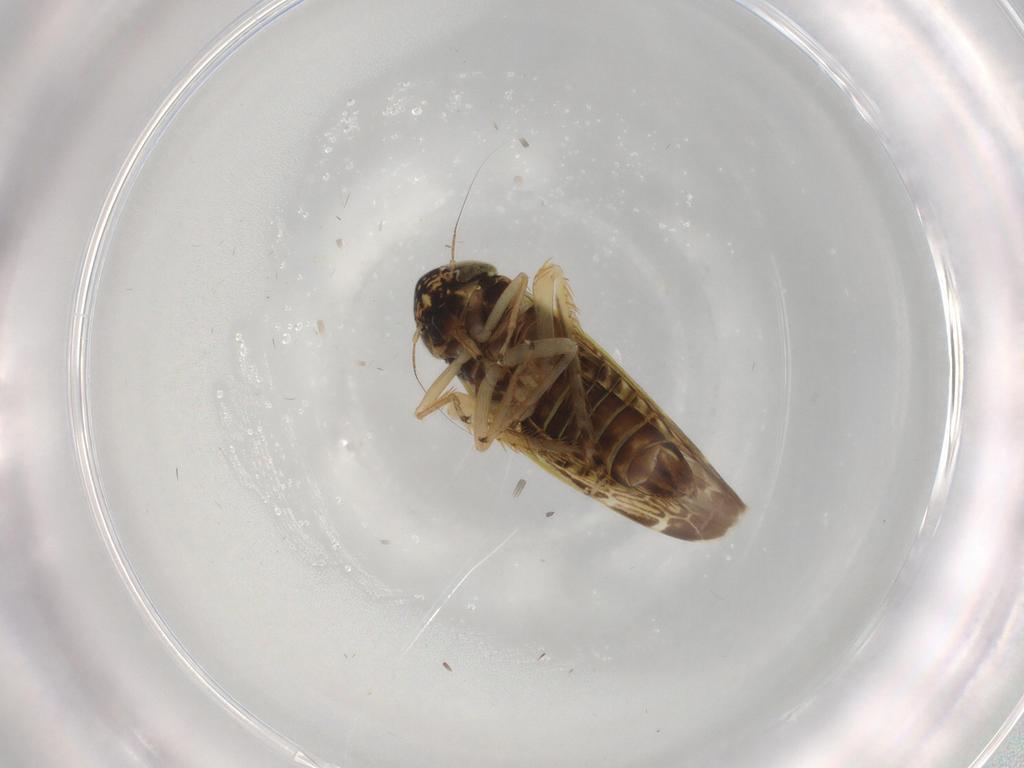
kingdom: Animalia
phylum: Arthropoda
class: Insecta
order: Hemiptera
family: Cicadellidae
